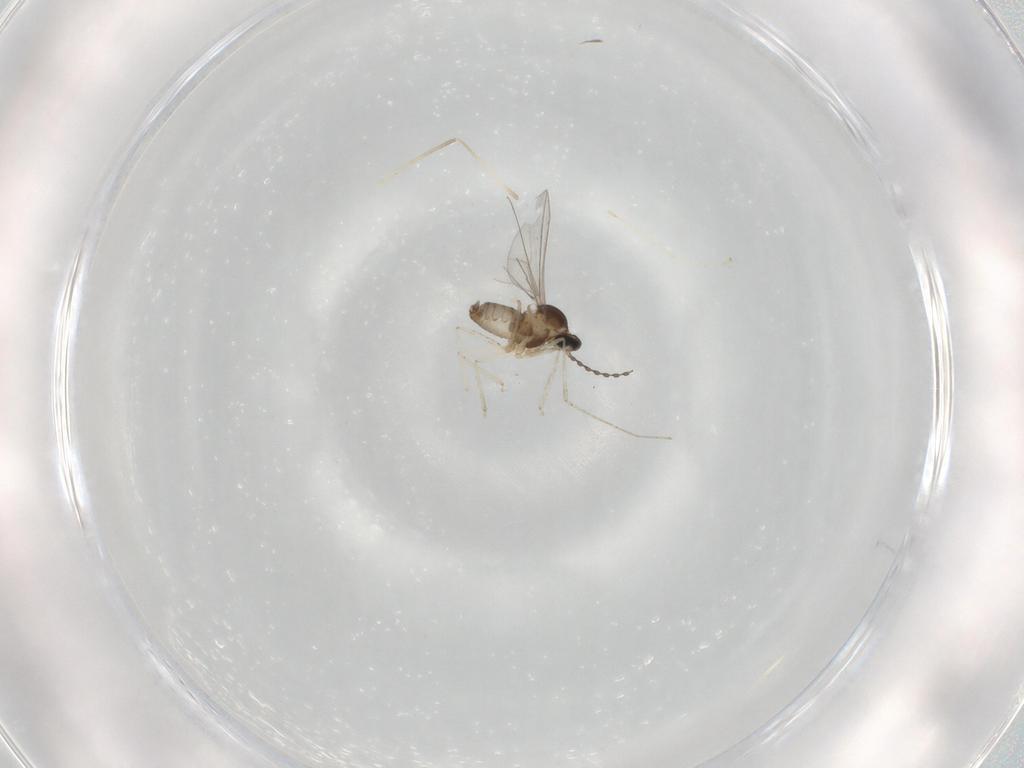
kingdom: Animalia
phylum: Arthropoda
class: Insecta
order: Diptera
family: Cecidomyiidae
